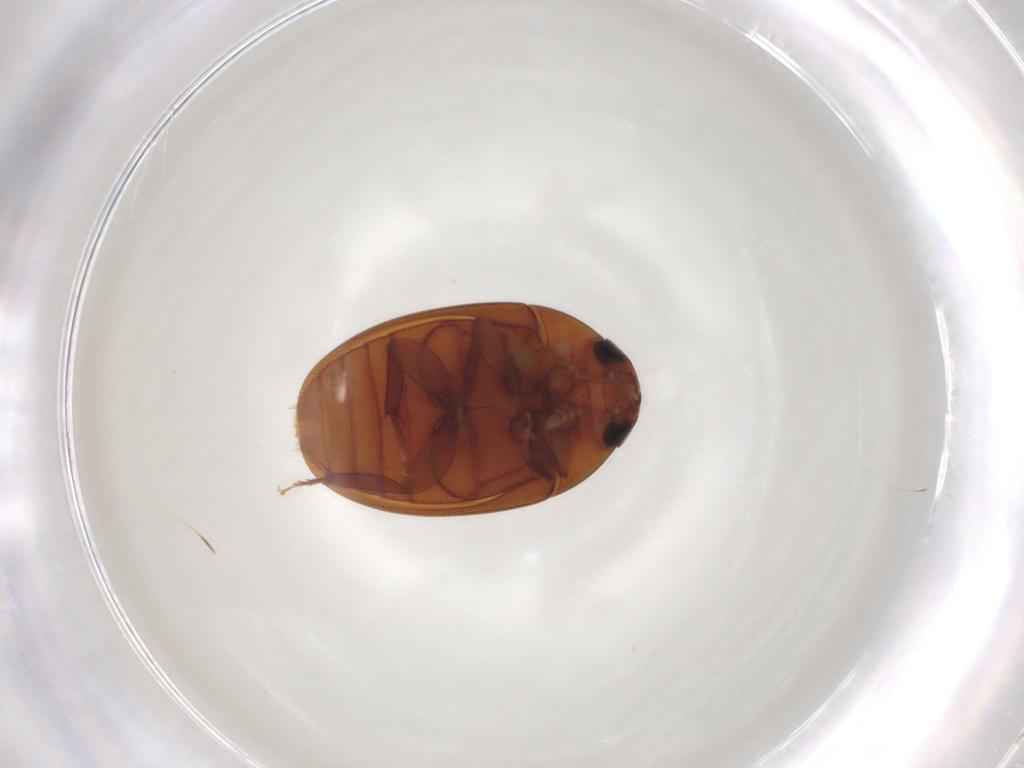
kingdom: Animalia
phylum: Arthropoda
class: Insecta
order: Coleoptera
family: Phalacridae
